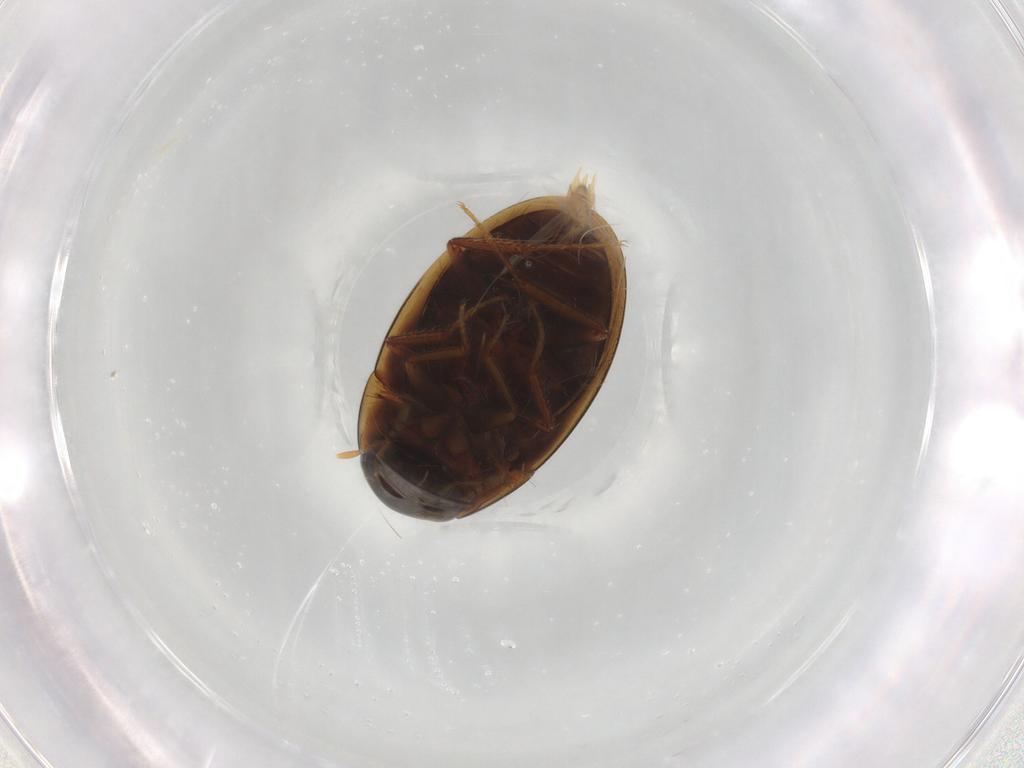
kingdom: Animalia
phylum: Arthropoda
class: Insecta
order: Coleoptera
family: Hydrophilidae
